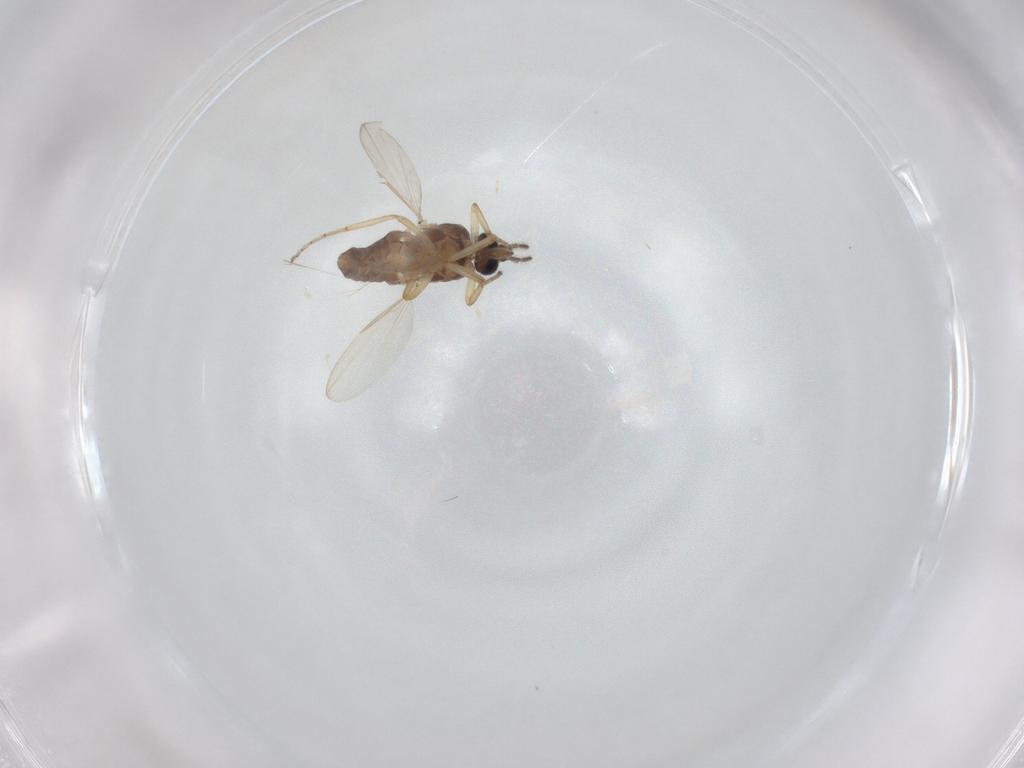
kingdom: Animalia
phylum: Arthropoda
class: Insecta
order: Diptera
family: Ceratopogonidae
